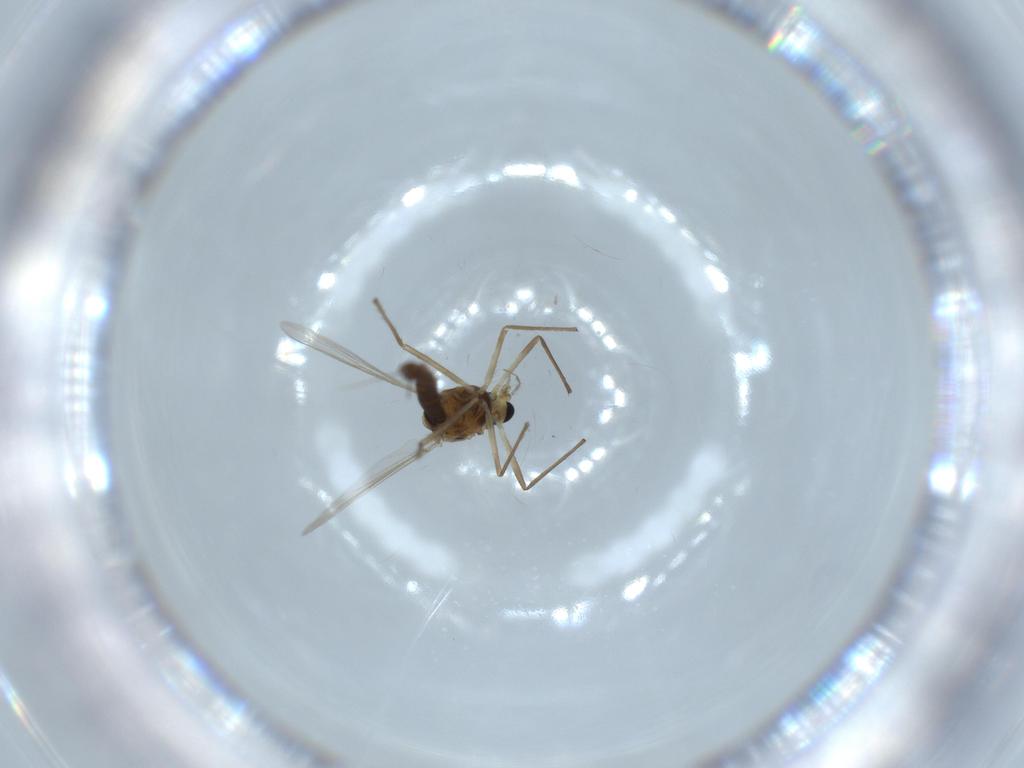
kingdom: Animalia
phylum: Arthropoda
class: Insecta
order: Diptera
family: Chironomidae
